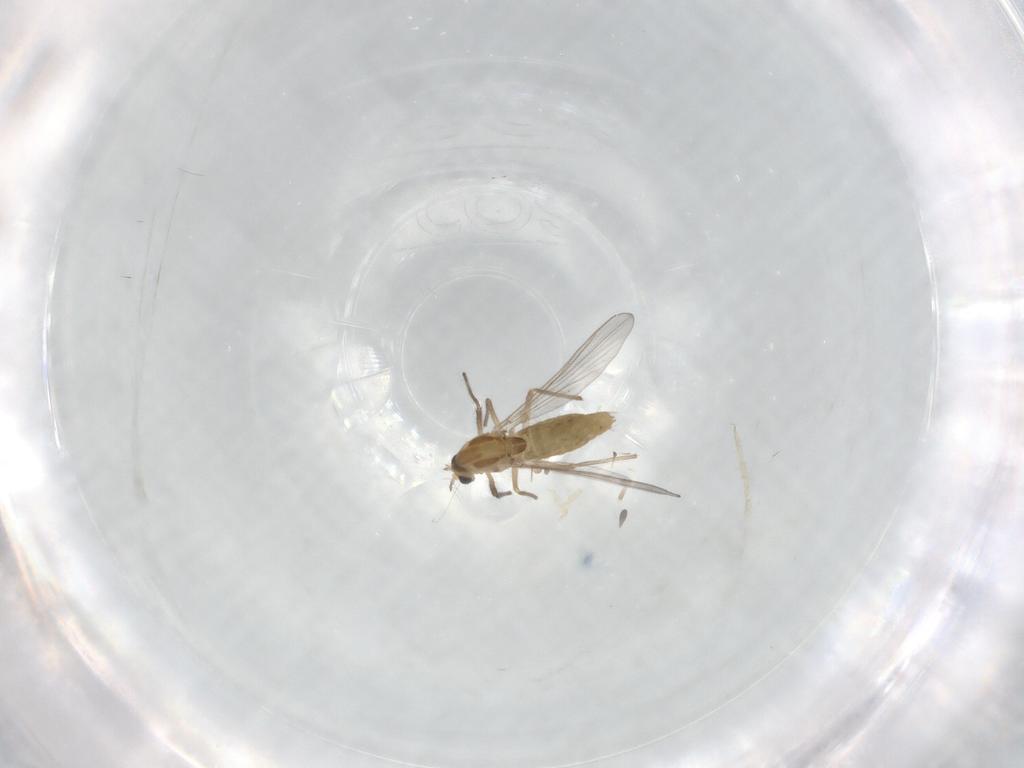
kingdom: Animalia
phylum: Arthropoda
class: Insecta
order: Diptera
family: Chironomidae
